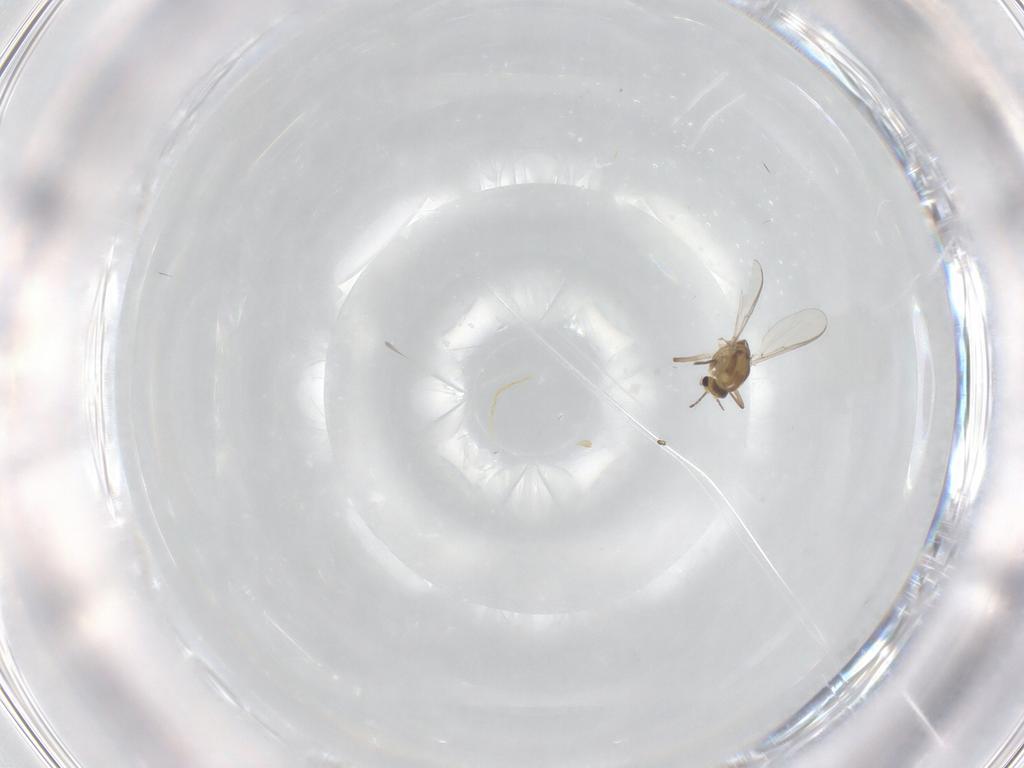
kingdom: Animalia
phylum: Arthropoda
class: Insecta
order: Diptera
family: Chironomidae
